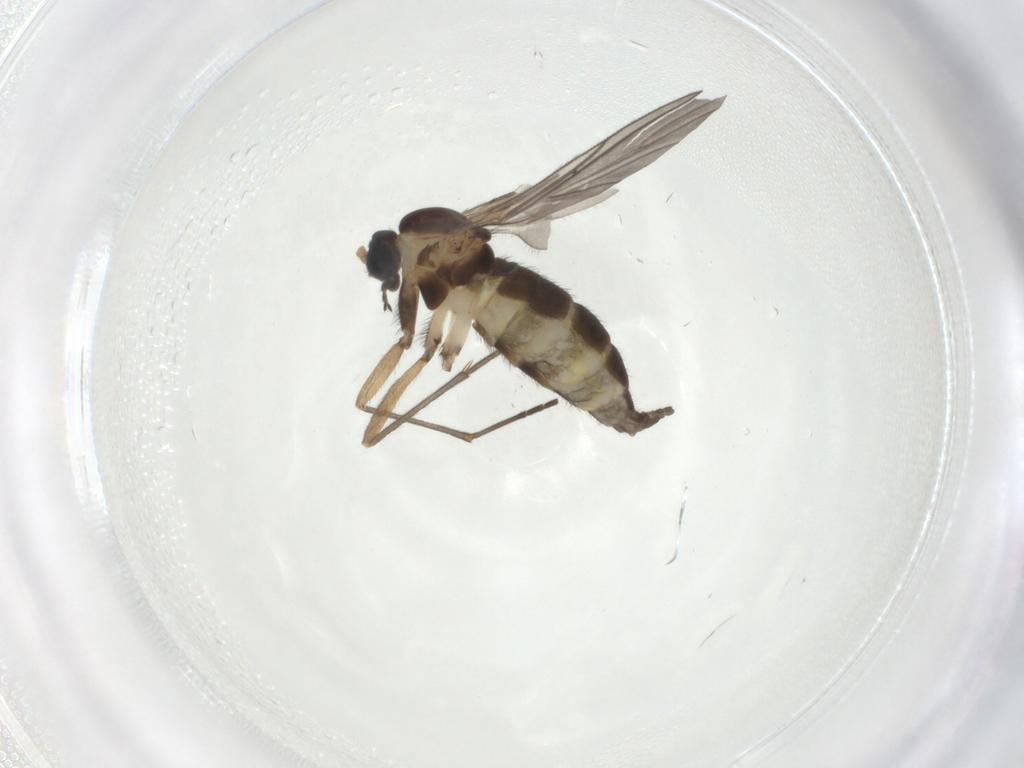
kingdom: Animalia
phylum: Arthropoda
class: Insecta
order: Diptera
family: Sciaridae
